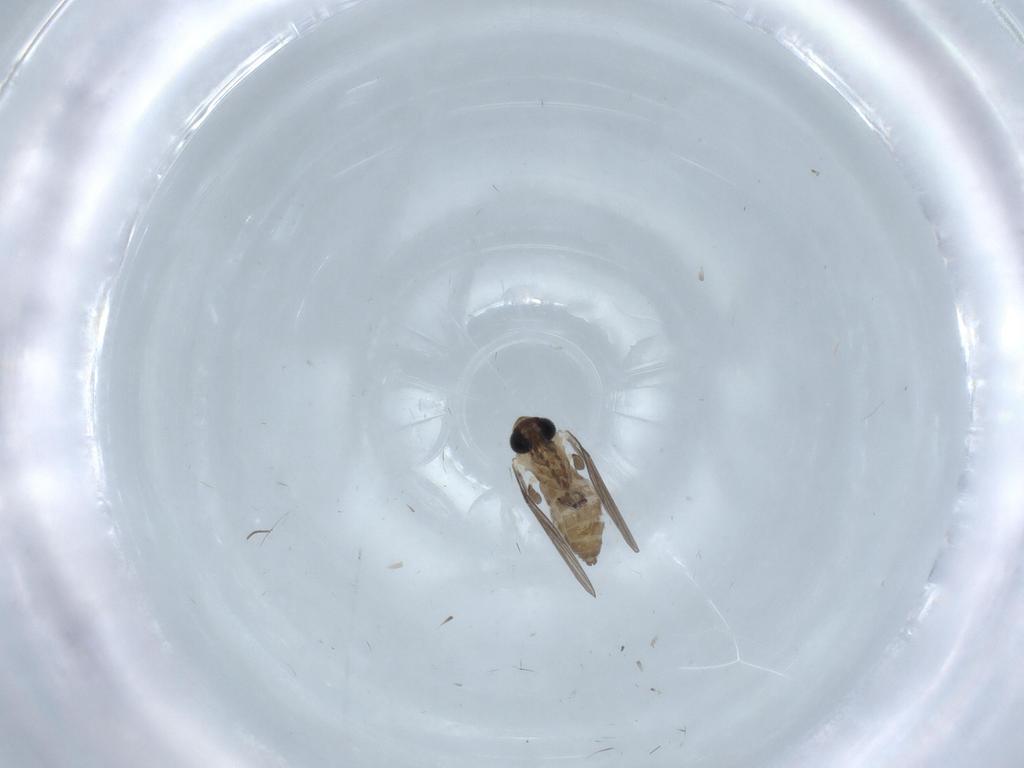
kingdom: Animalia
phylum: Arthropoda
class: Insecta
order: Diptera
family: Chironomidae
